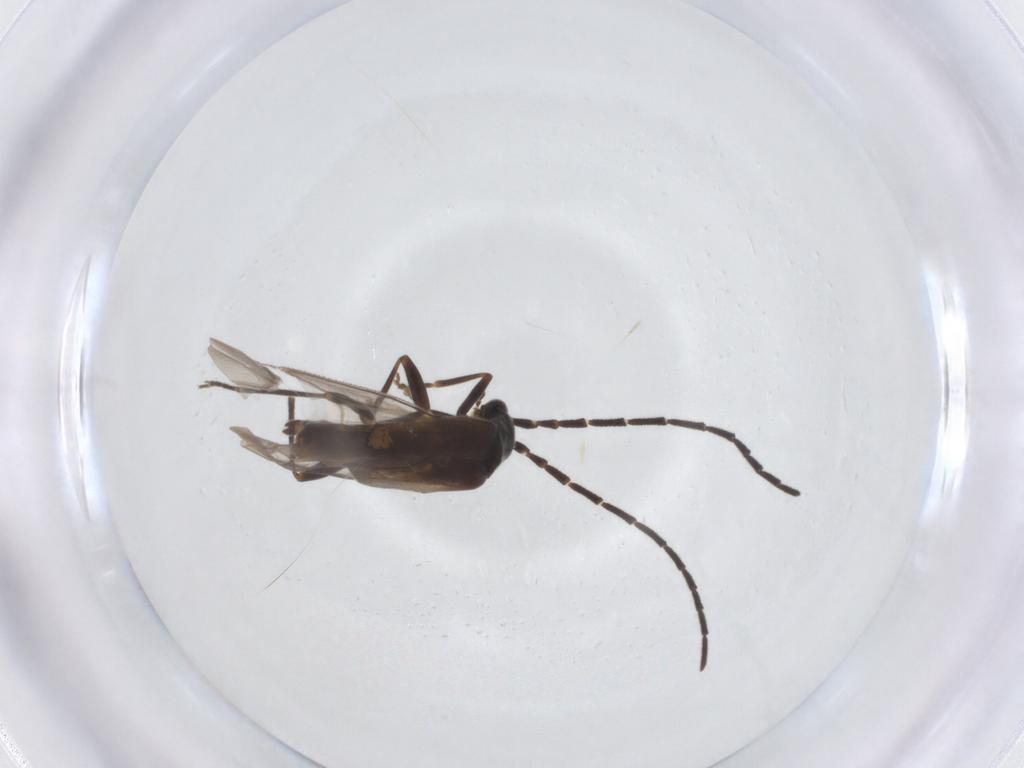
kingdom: Animalia
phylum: Arthropoda
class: Insecta
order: Coleoptera
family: Cantharidae
